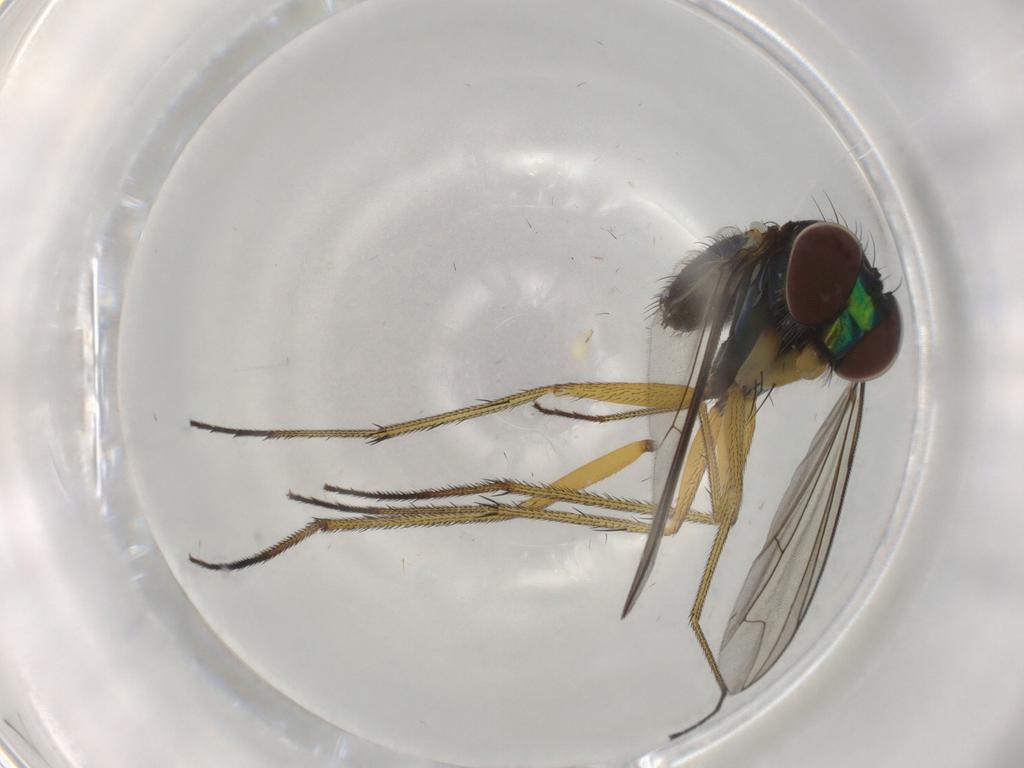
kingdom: Animalia
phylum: Arthropoda
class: Insecta
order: Diptera
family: Dolichopodidae
